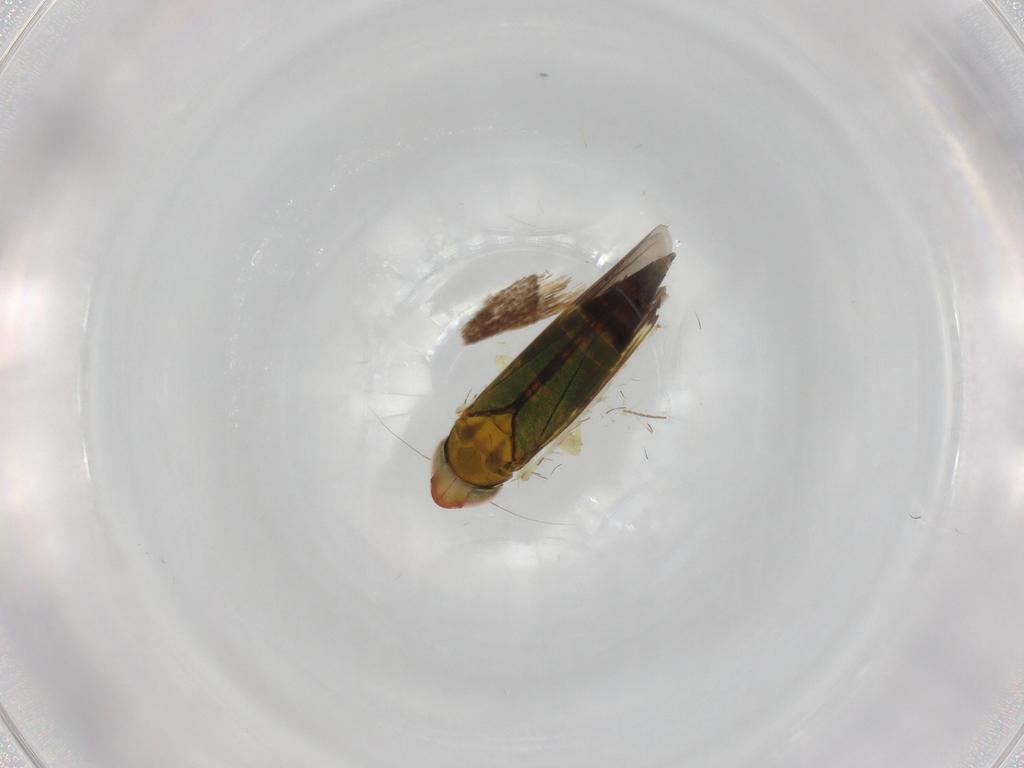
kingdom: Animalia
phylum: Arthropoda
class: Insecta
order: Hemiptera
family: Cicadellidae
